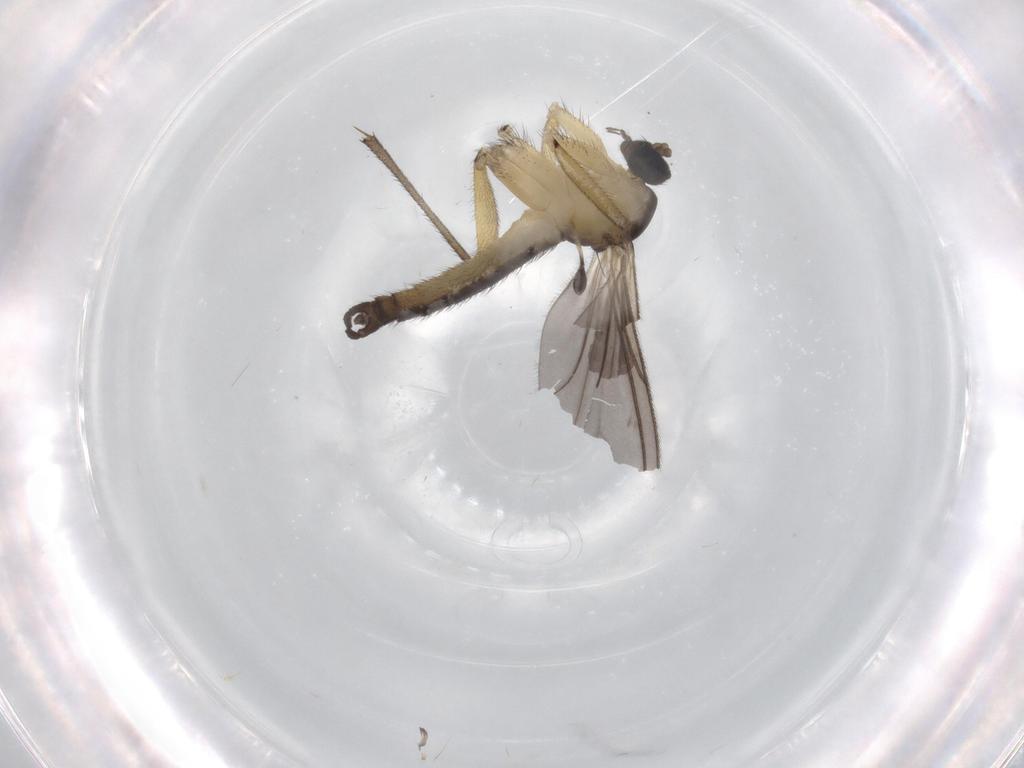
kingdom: Animalia
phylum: Arthropoda
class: Insecta
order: Diptera
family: Sciaridae
